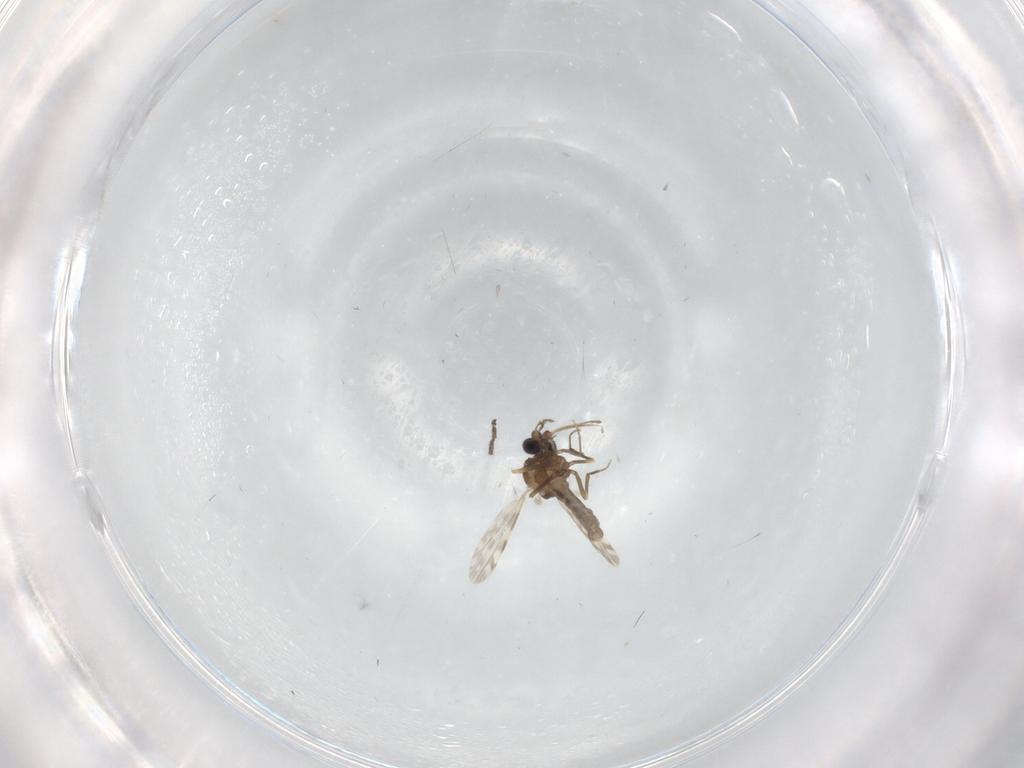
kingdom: Animalia
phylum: Arthropoda
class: Insecta
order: Diptera
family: Ceratopogonidae
